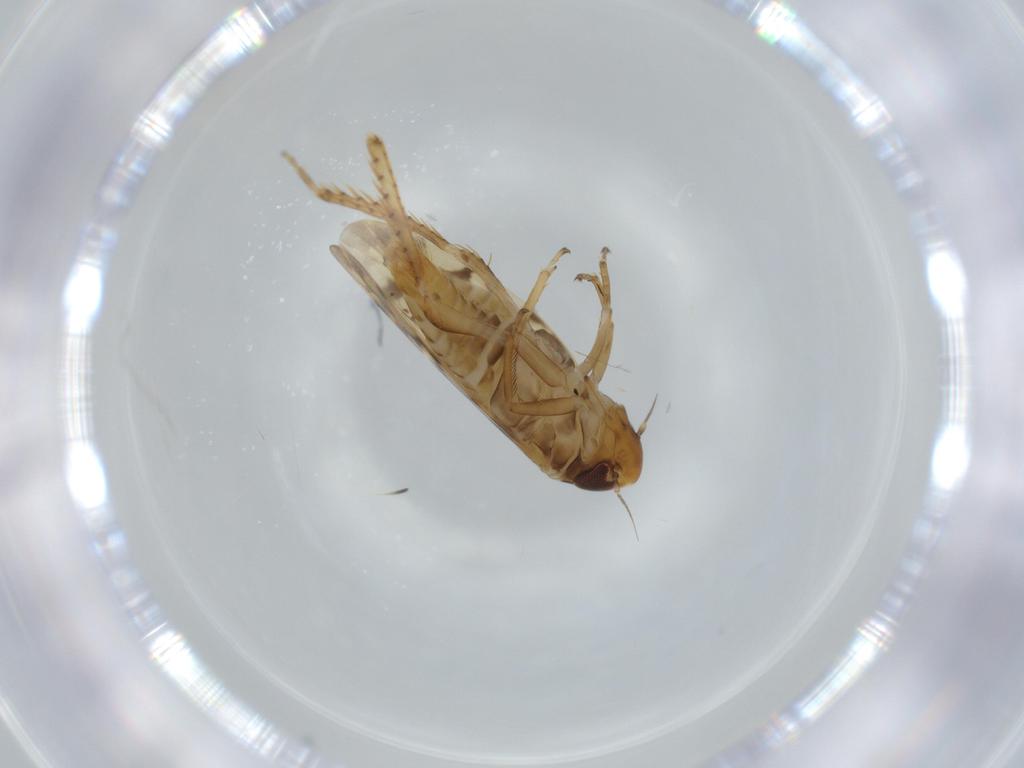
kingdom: Animalia
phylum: Arthropoda
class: Insecta
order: Hemiptera
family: Cicadellidae
